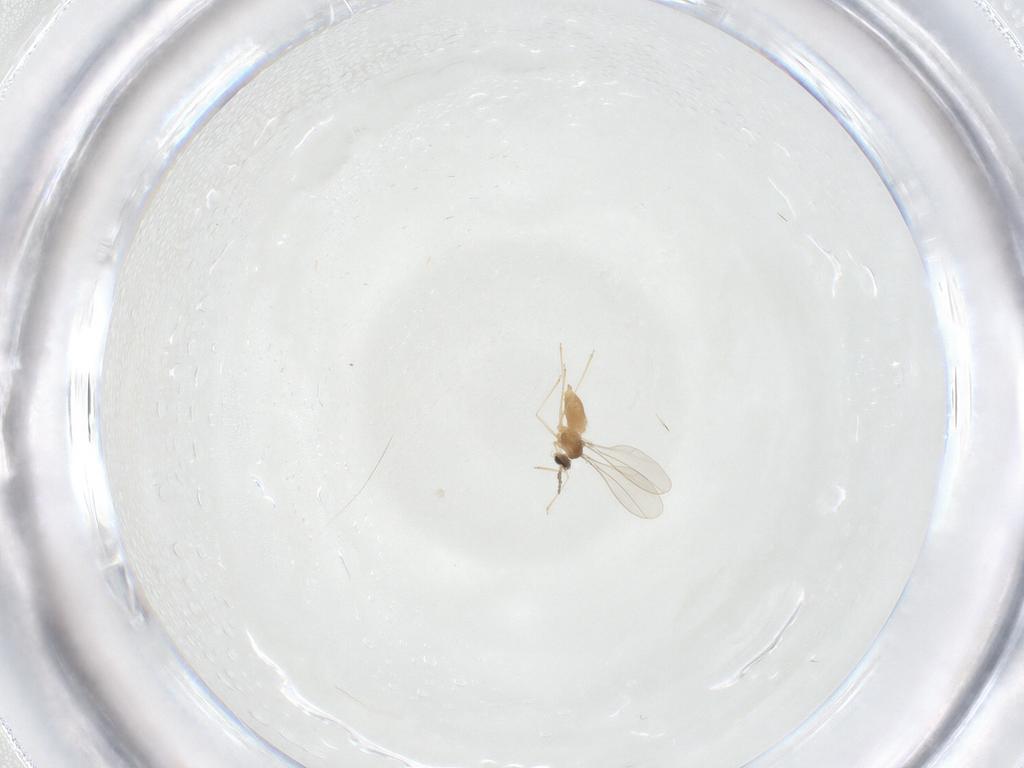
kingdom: Animalia
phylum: Arthropoda
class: Insecta
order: Diptera
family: Cecidomyiidae
